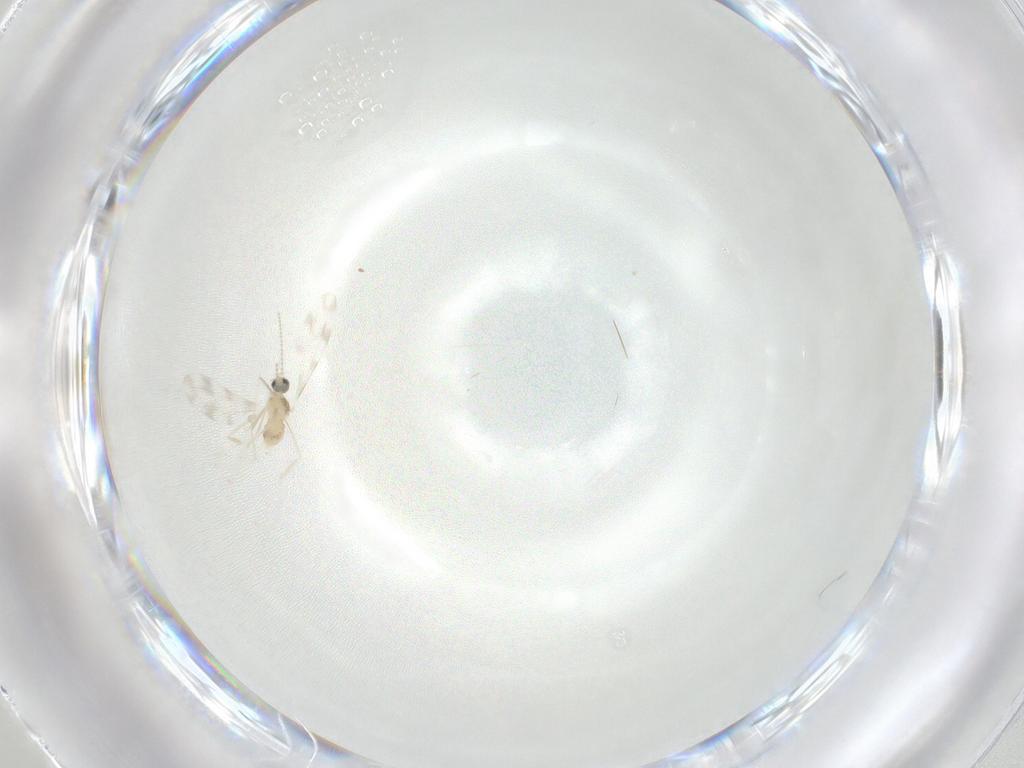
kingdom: Animalia
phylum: Arthropoda
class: Insecta
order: Diptera
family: Cecidomyiidae
